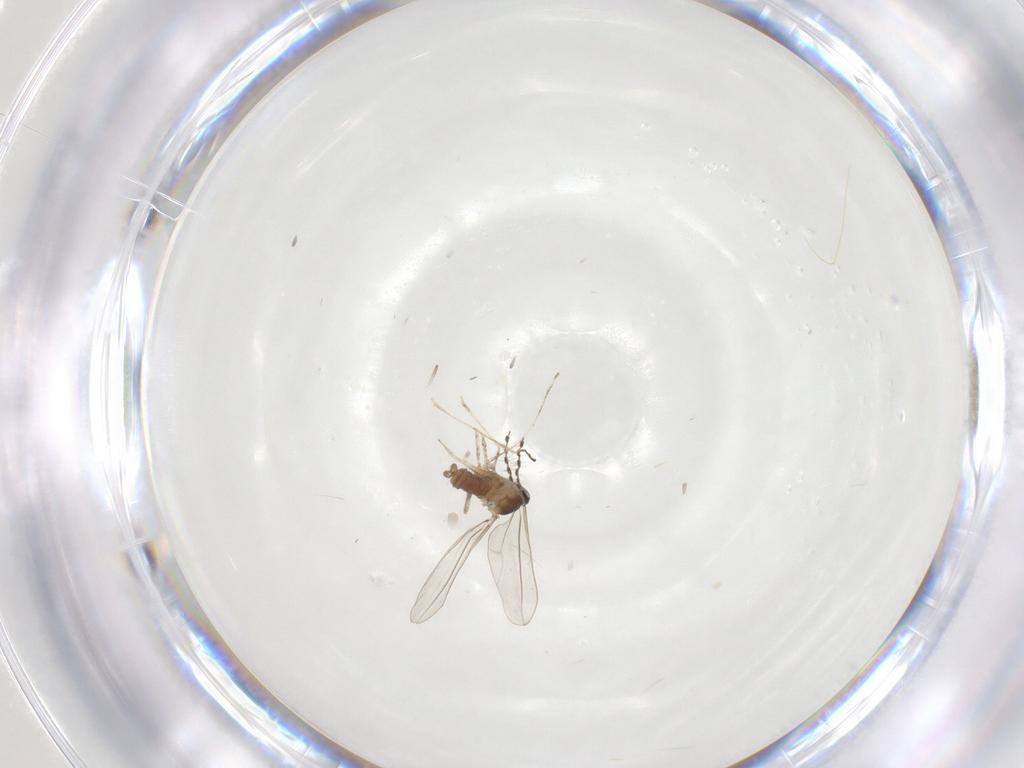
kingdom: Animalia
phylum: Arthropoda
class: Insecta
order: Diptera
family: Cecidomyiidae
